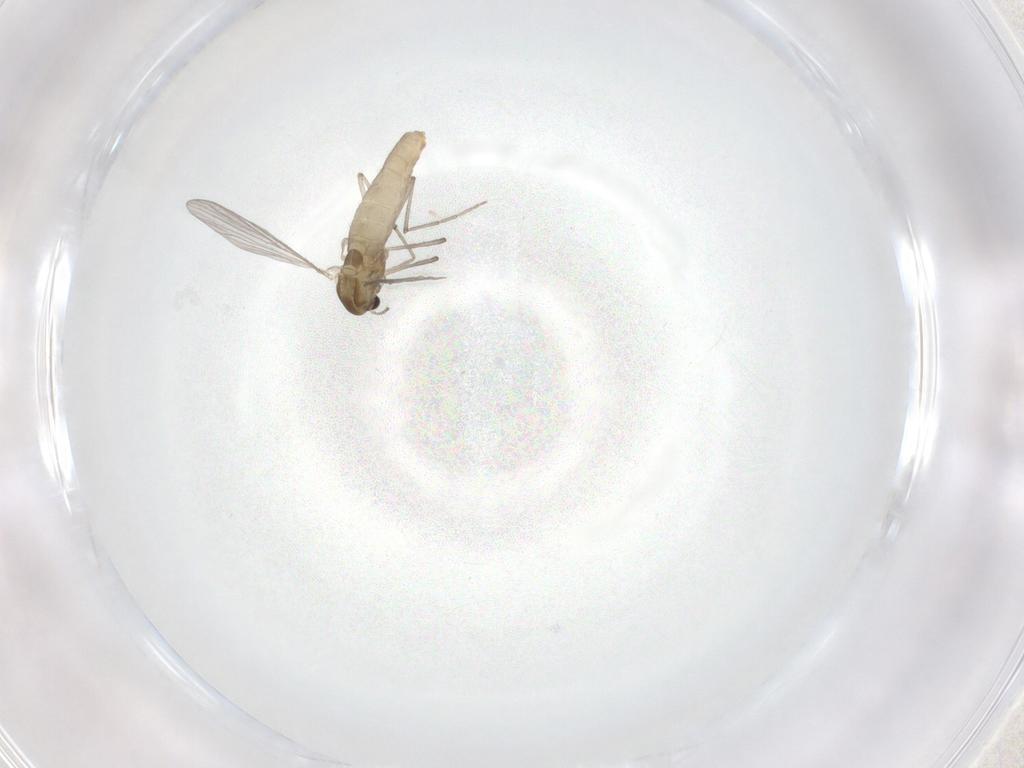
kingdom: Animalia
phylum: Arthropoda
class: Insecta
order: Diptera
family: Chironomidae
